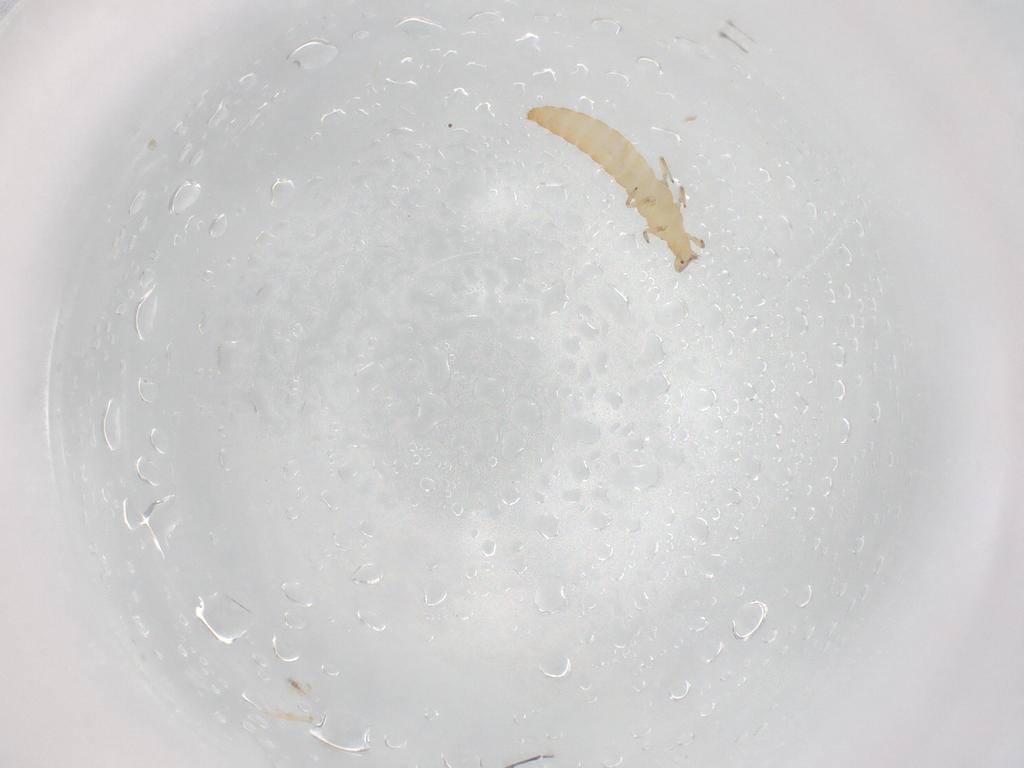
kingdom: Animalia
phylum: Arthropoda
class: Insecta
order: Thysanoptera
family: Aeolothripidae
